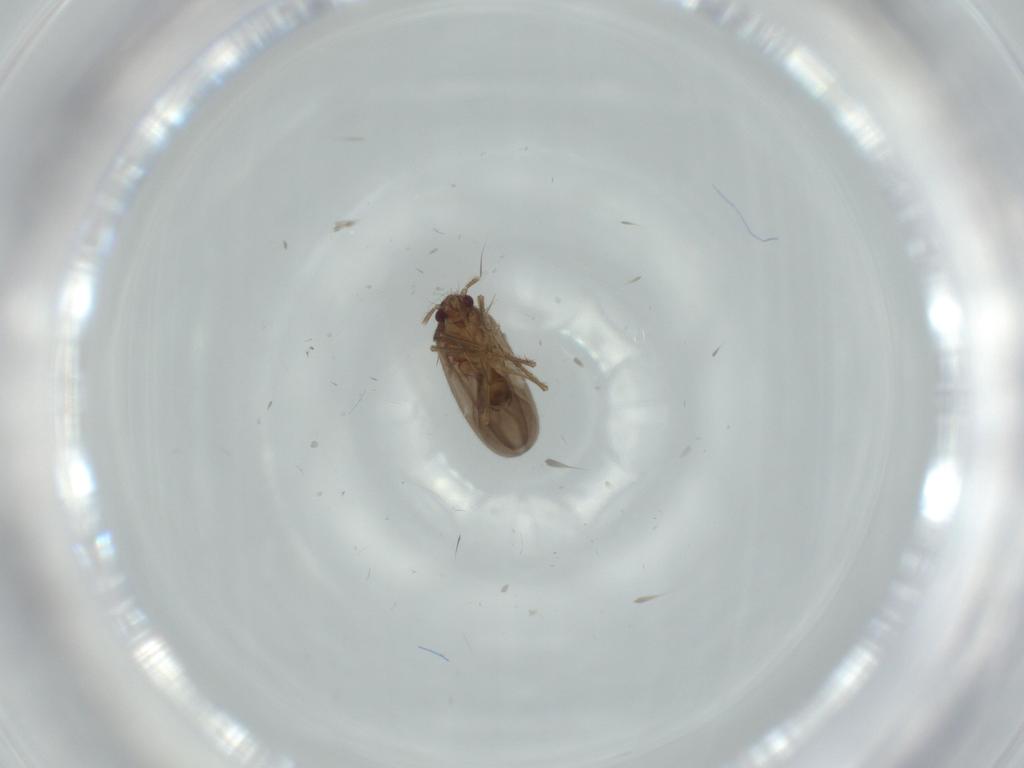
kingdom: Animalia
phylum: Arthropoda
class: Insecta
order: Hemiptera
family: Ceratocombidae
